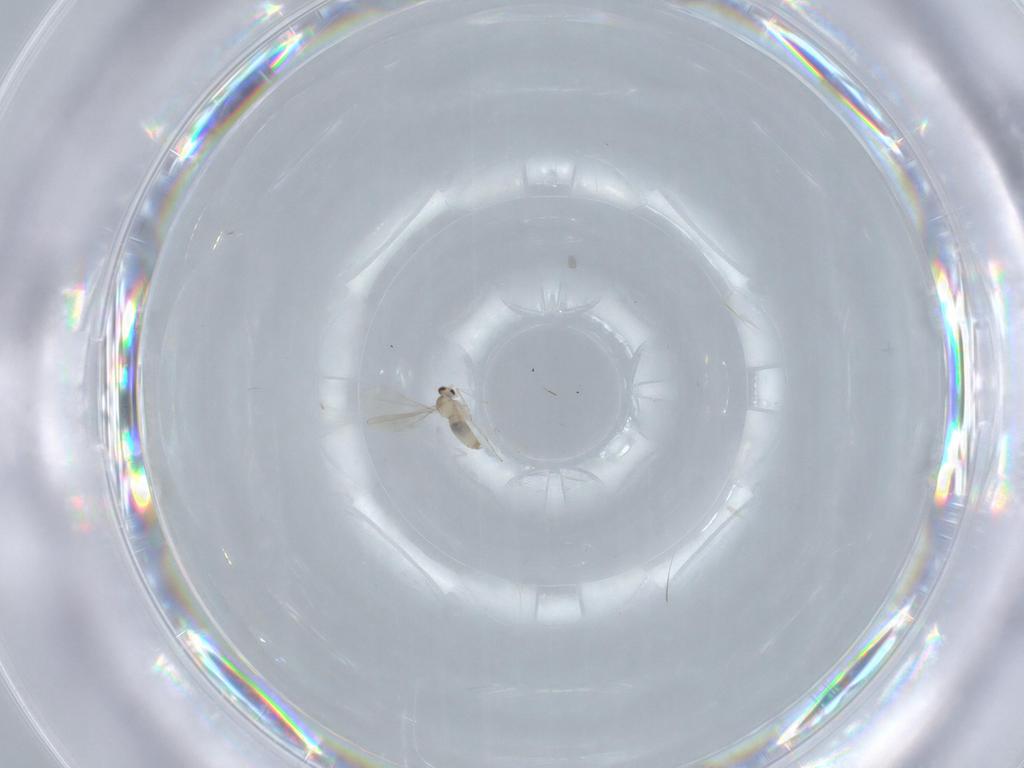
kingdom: Animalia
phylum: Arthropoda
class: Insecta
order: Diptera
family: Cecidomyiidae
